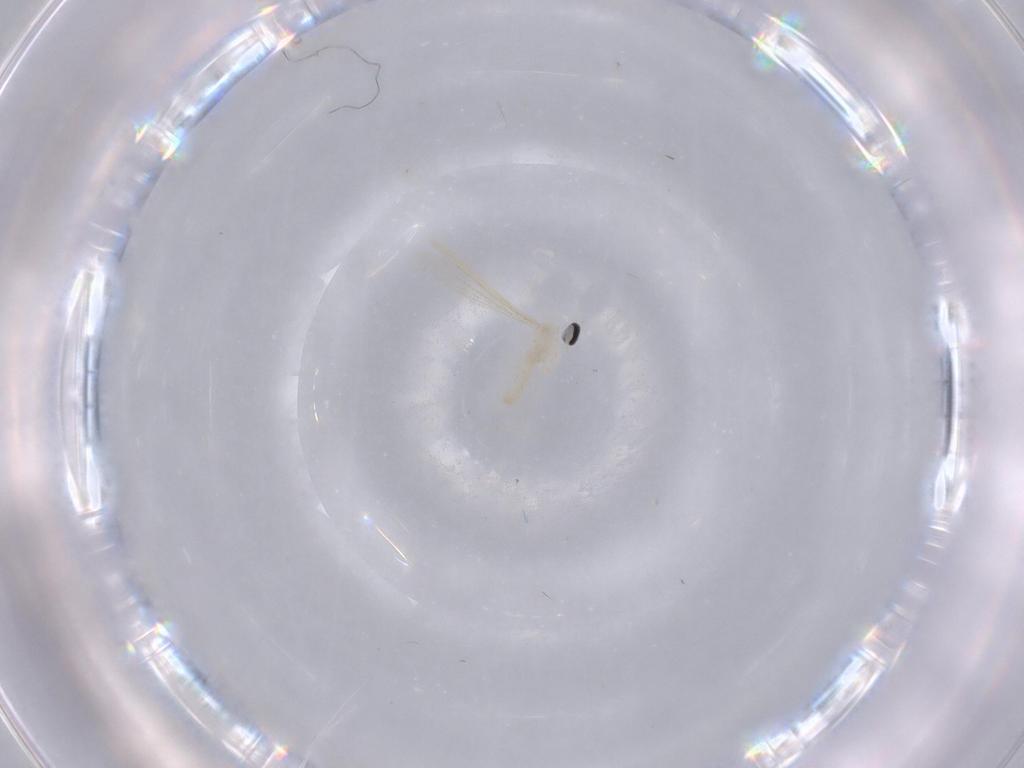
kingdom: Animalia
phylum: Arthropoda
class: Insecta
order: Diptera
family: Cecidomyiidae
